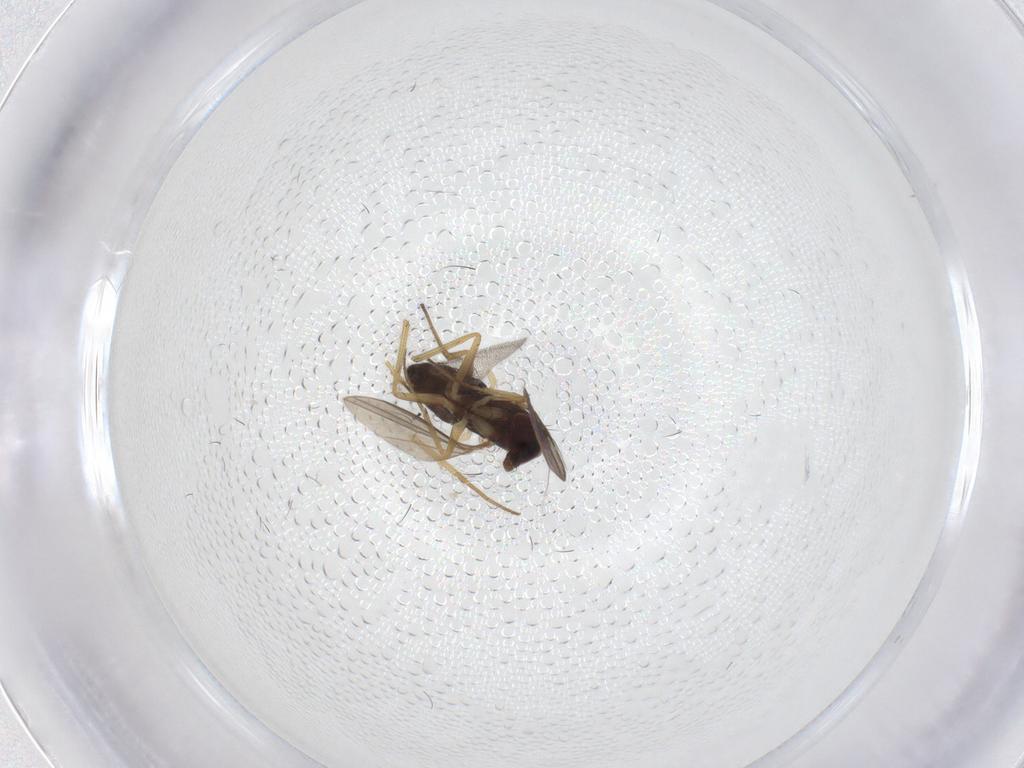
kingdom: Animalia
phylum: Arthropoda
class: Insecta
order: Diptera
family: Dolichopodidae
